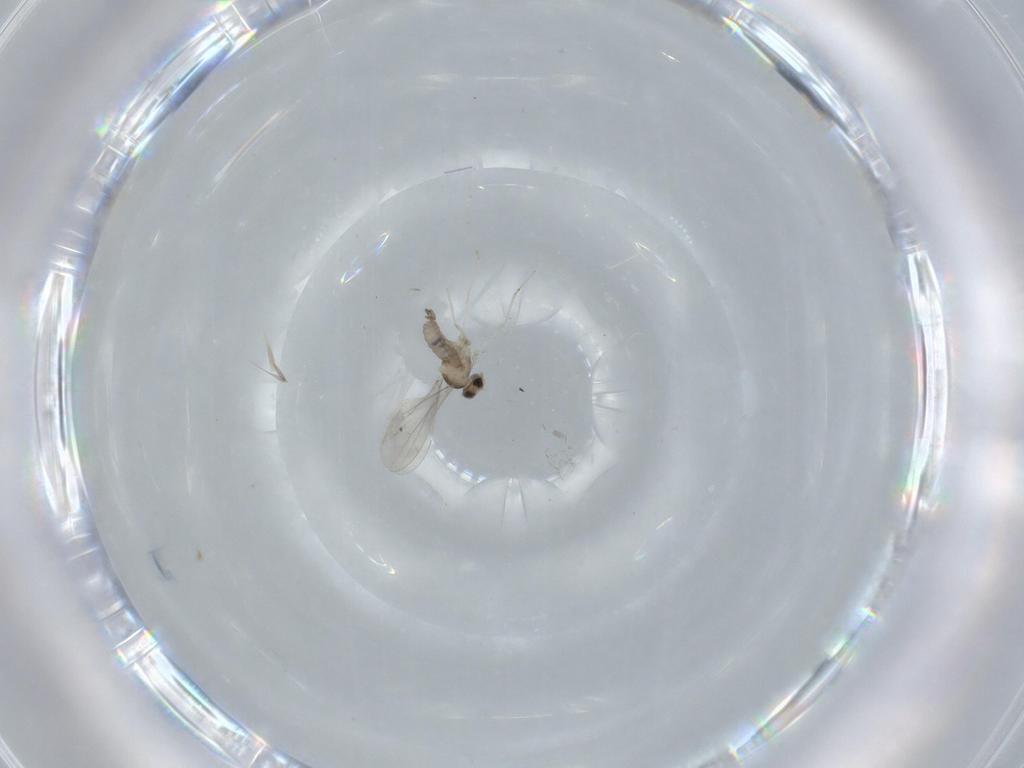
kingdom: Animalia
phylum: Arthropoda
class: Insecta
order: Diptera
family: Cecidomyiidae
